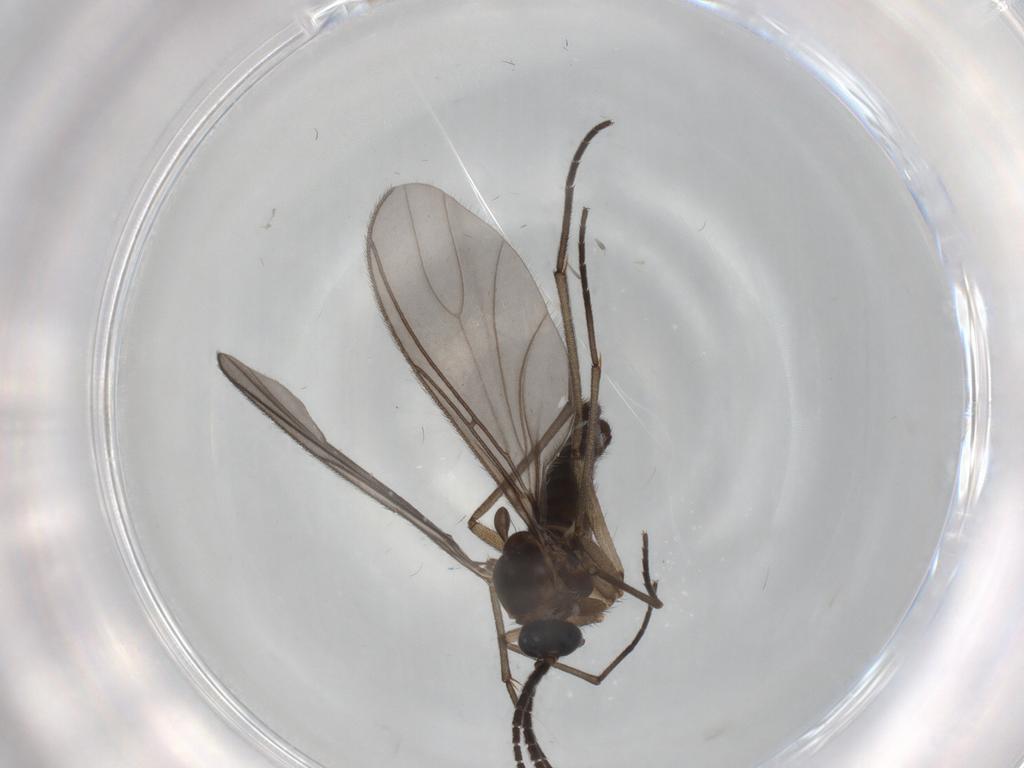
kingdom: Animalia
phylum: Arthropoda
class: Insecta
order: Diptera
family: Sciaridae
